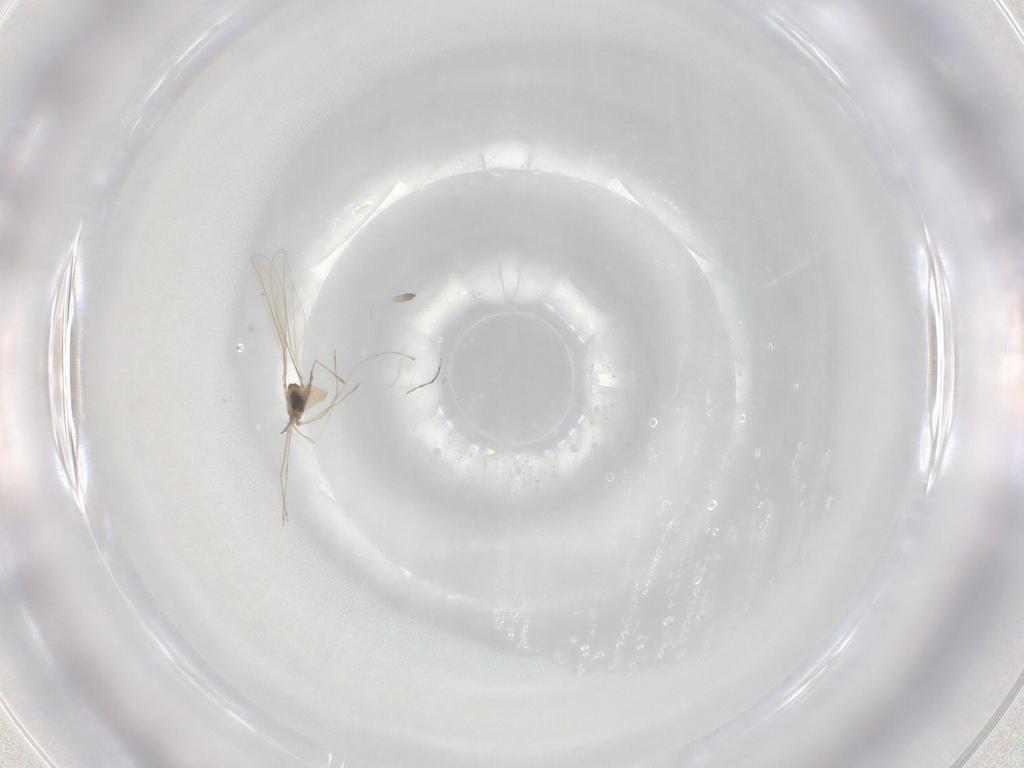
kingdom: Animalia
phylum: Arthropoda
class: Insecta
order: Diptera
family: Cecidomyiidae
